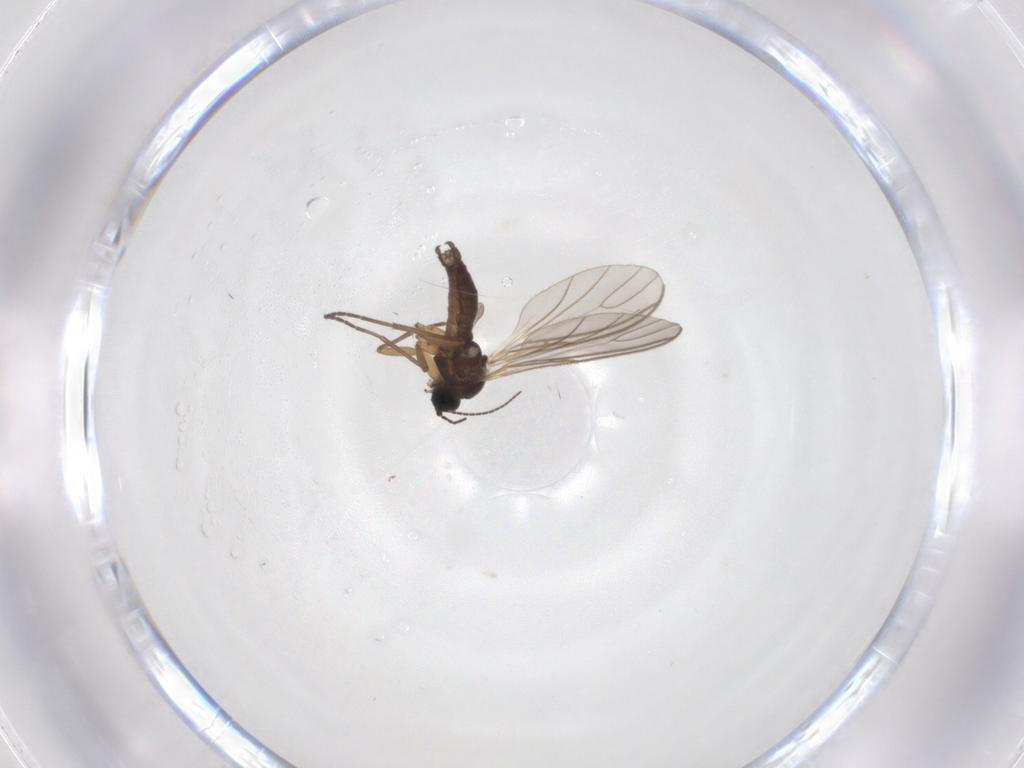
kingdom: Animalia
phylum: Arthropoda
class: Insecta
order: Diptera
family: Sciaridae
